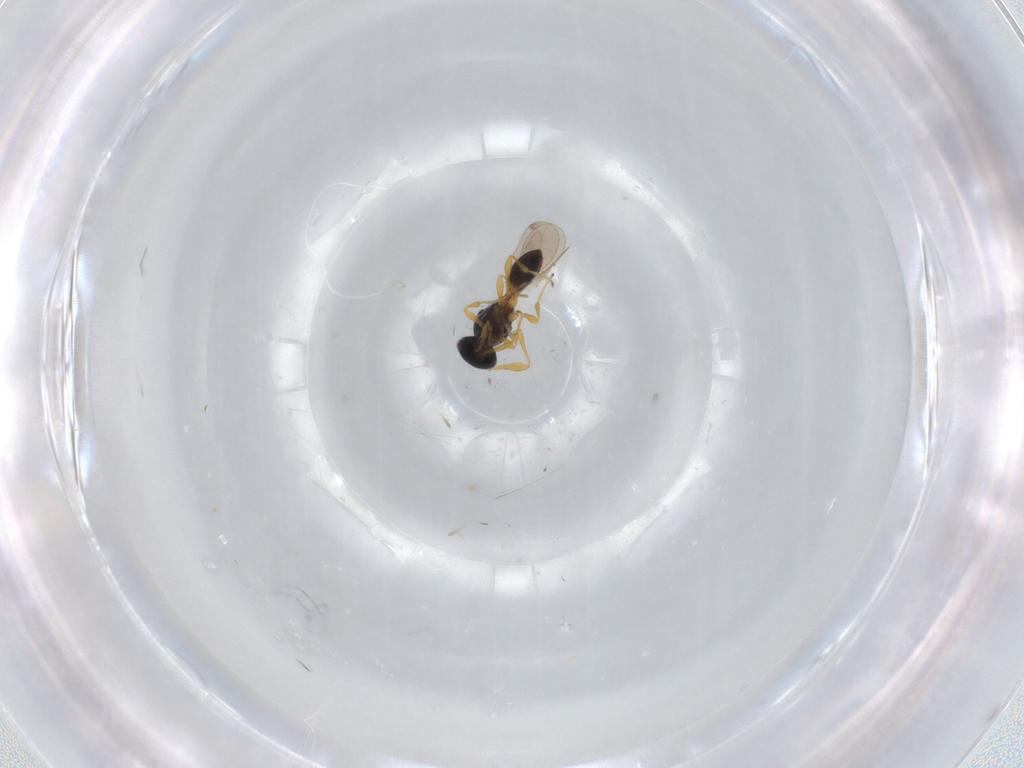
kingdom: Animalia
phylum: Arthropoda
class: Insecta
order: Hymenoptera
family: Platygastridae
